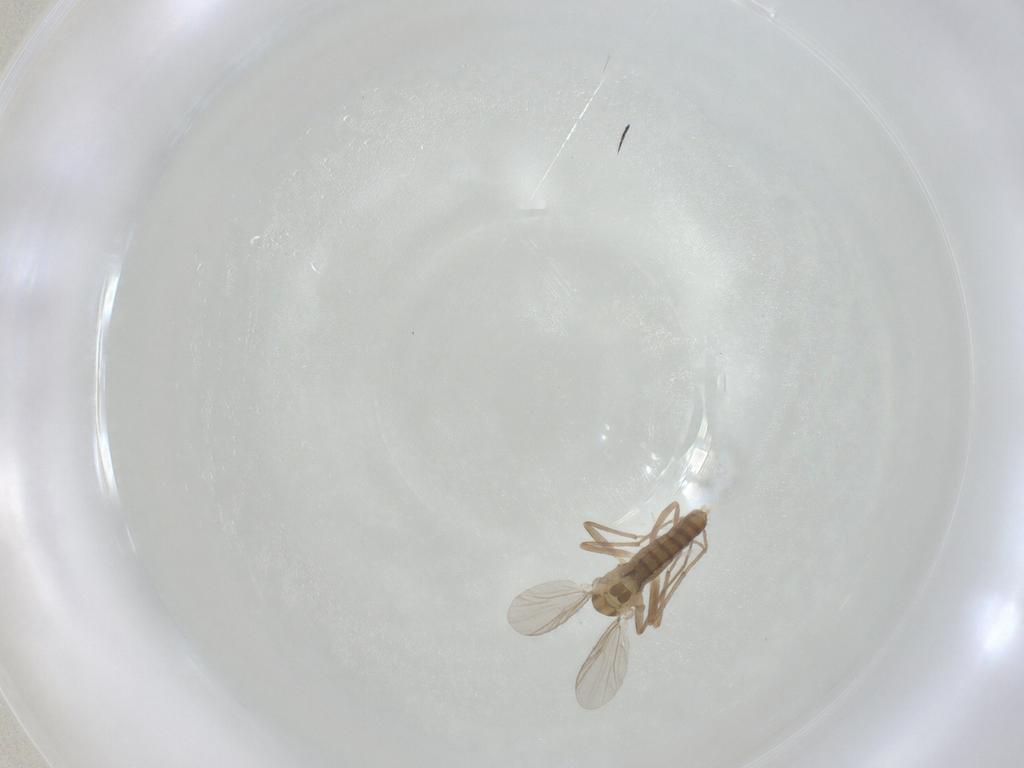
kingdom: Animalia
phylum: Arthropoda
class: Insecta
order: Diptera
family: Chironomidae
